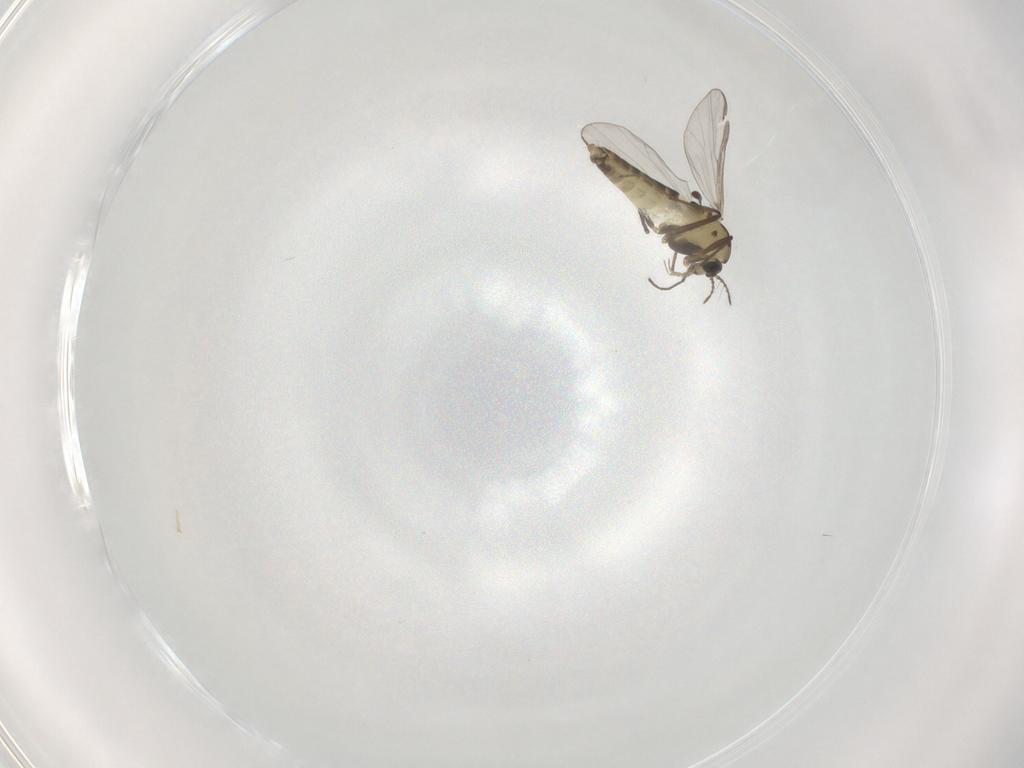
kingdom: Animalia
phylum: Arthropoda
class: Insecta
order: Diptera
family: Chironomidae
